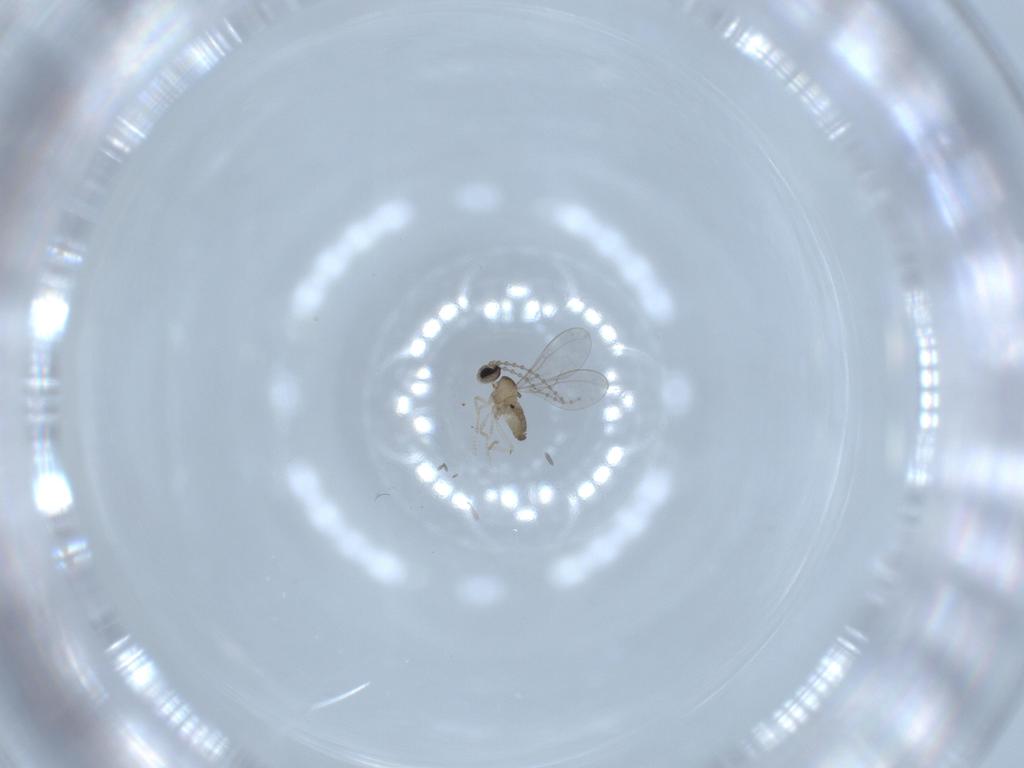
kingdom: Animalia
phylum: Arthropoda
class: Insecta
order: Diptera
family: Cecidomyiidae
